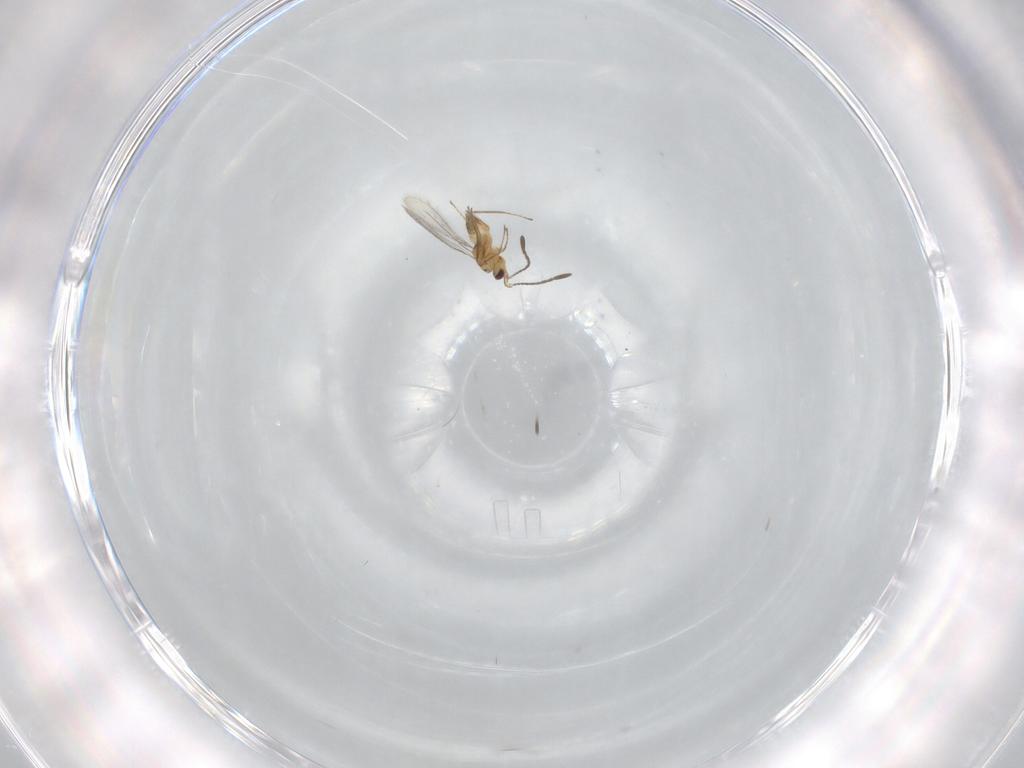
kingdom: Animalia
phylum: Arthropoda
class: Insecta
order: Hymenoptera
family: Mymaridae
